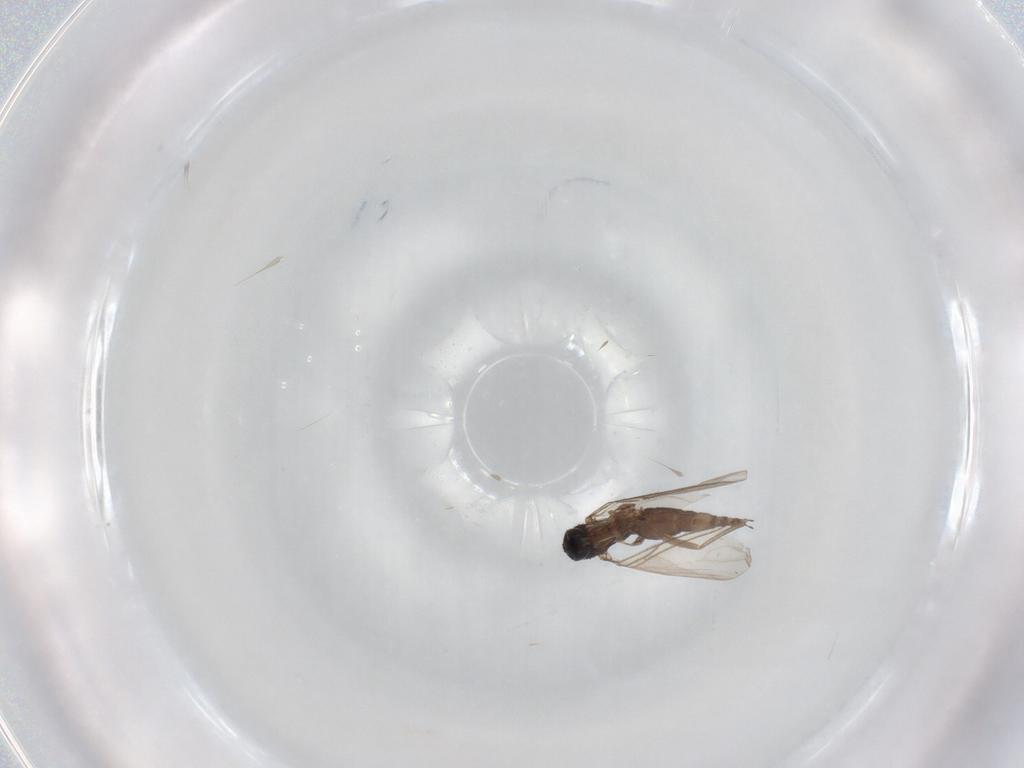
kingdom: Animalia
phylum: Arthropoda
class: Insecta
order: Diptera
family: Sciaridae
